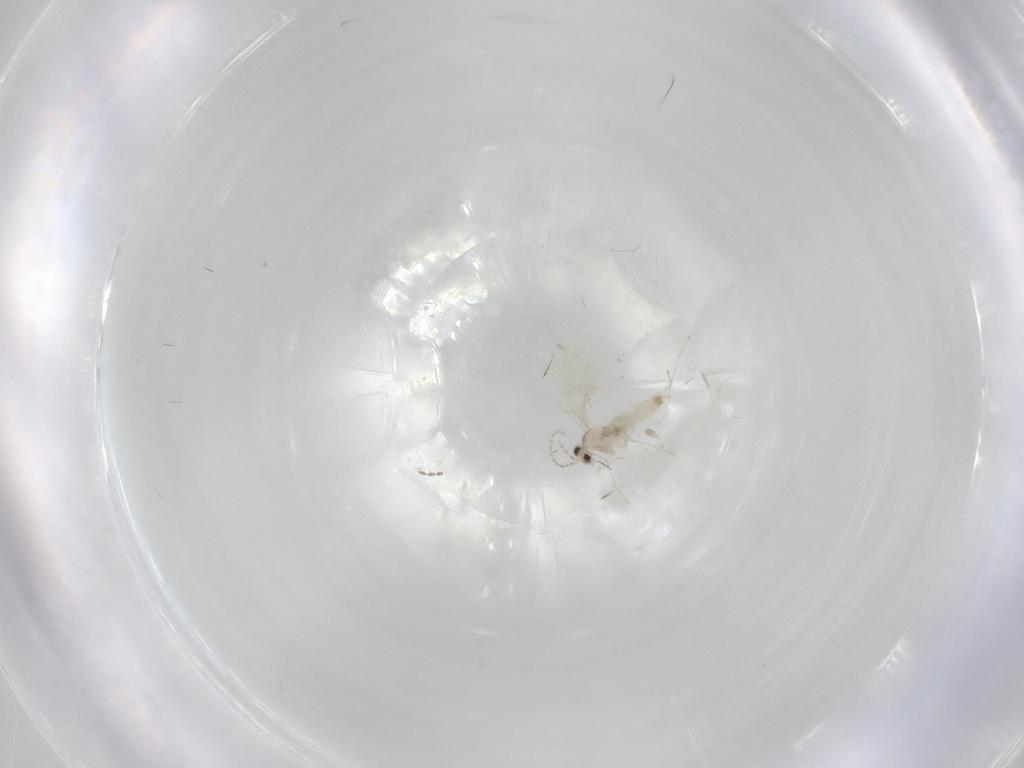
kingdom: Animalia
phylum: Arthropoda
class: Insecta
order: Diptera
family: Cecidomyiidae
